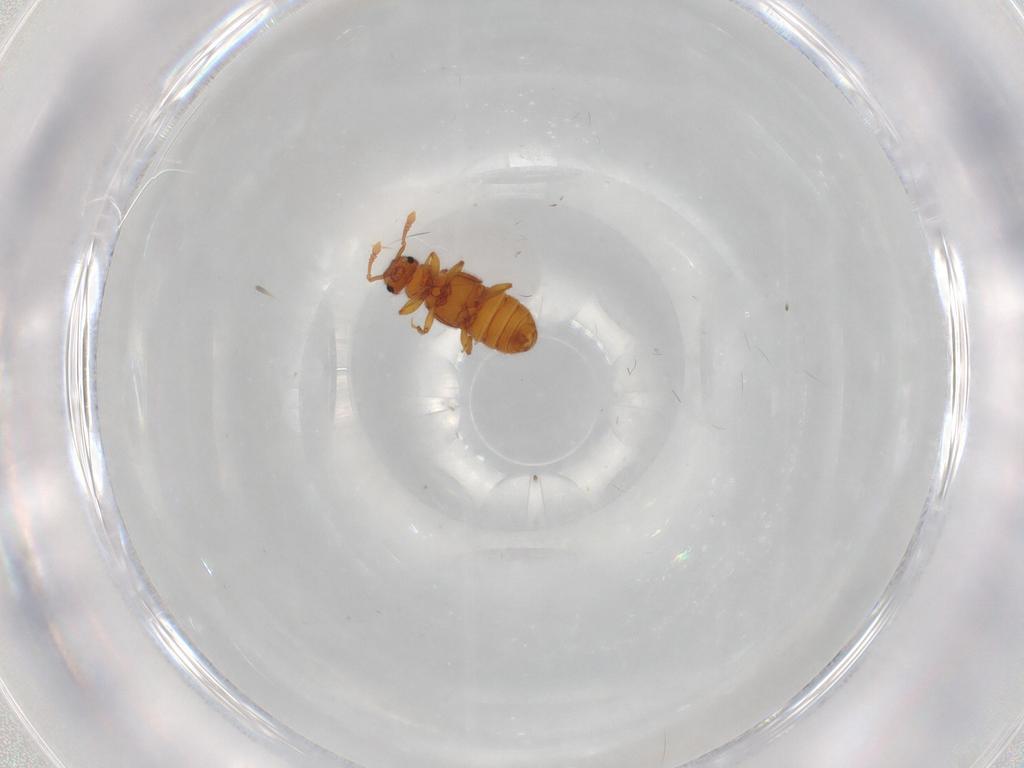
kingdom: Animalia
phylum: Arthropoda
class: Insecta
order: Coleoptera
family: Staphylinidae
